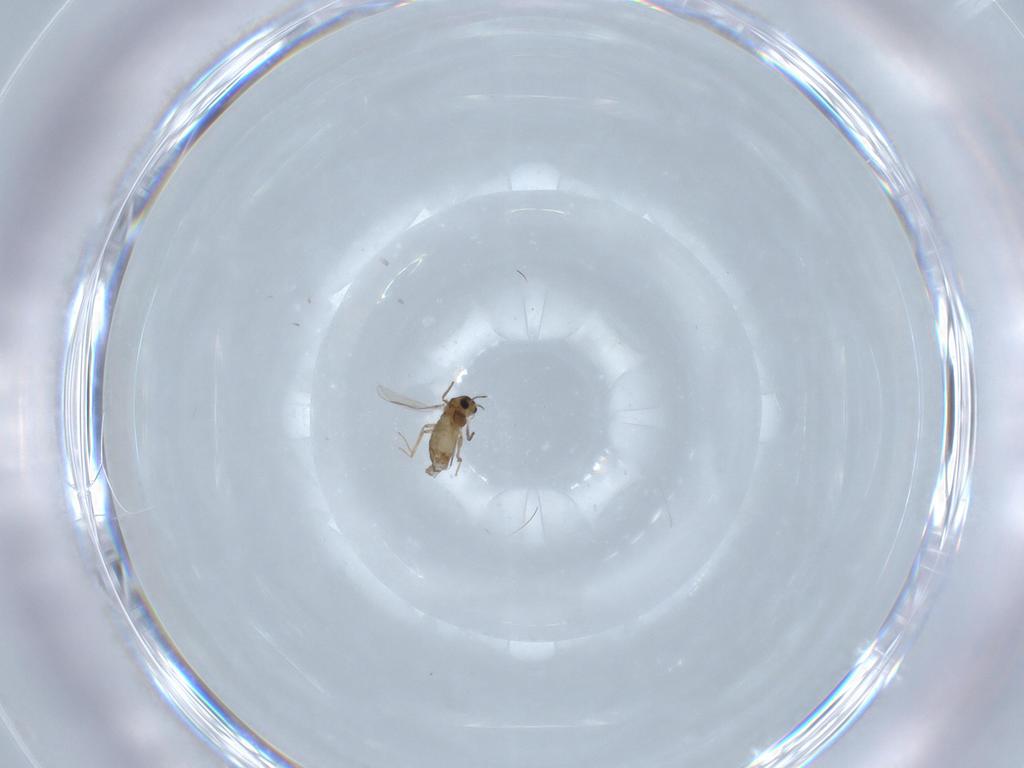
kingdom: Animalia
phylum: Arthropoda
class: Insecta
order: Diptera
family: Chironomidae
